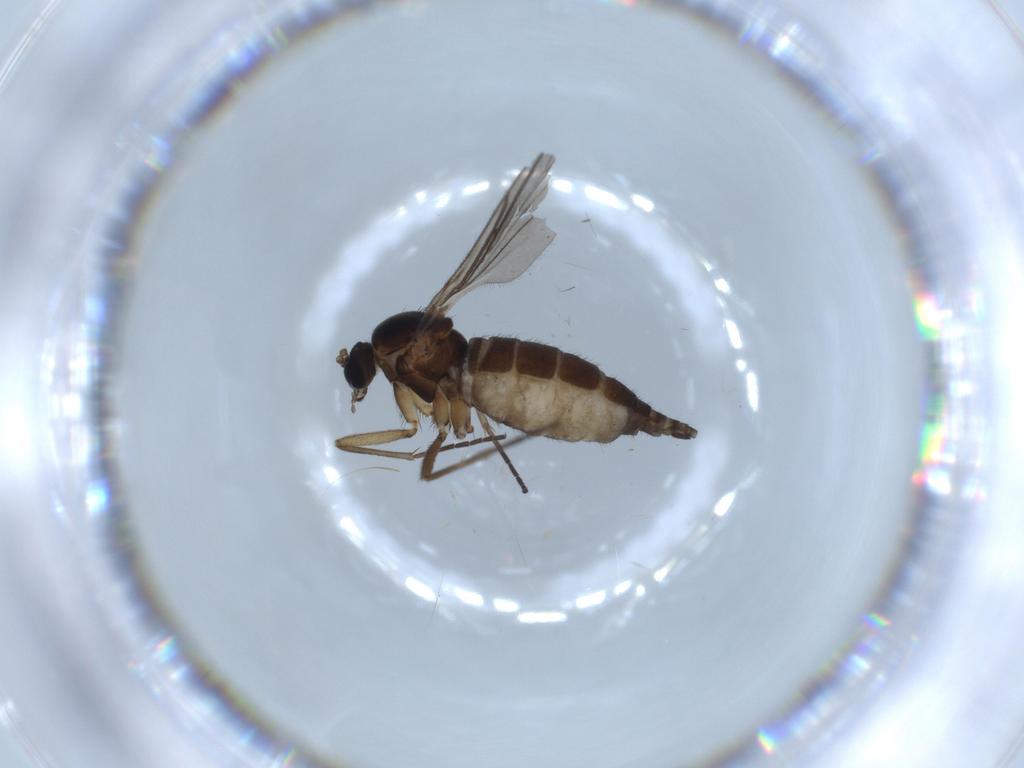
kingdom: Animalia
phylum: Arthropoda
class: Insecta
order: Diptera
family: Sciaridae
